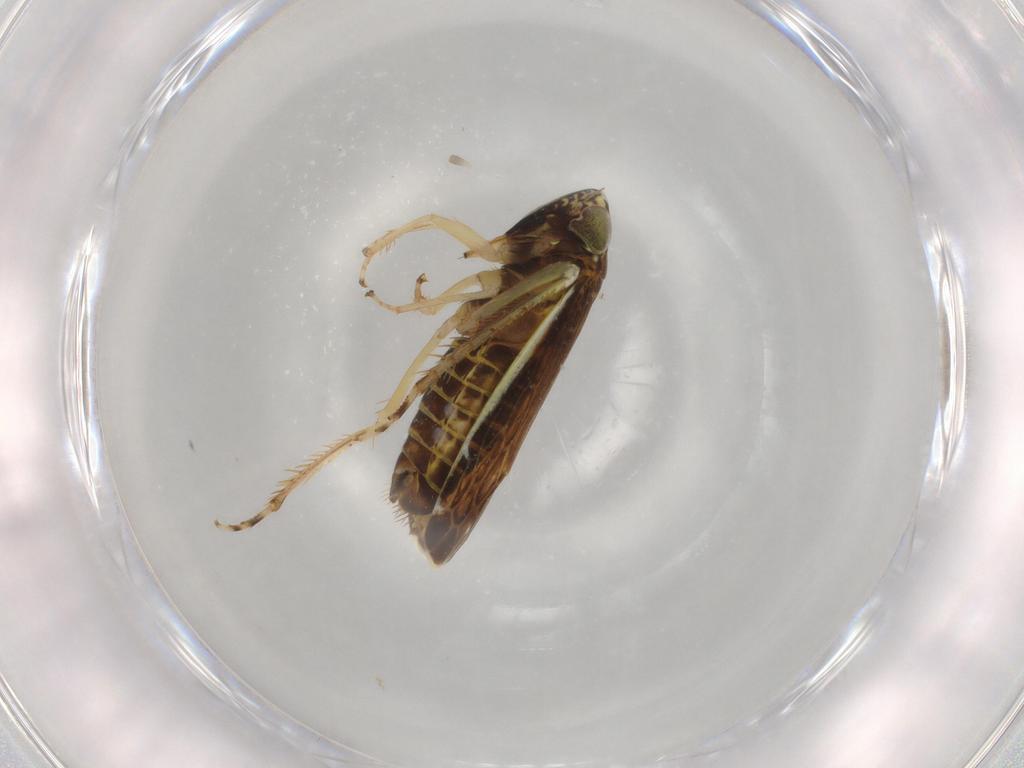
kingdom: Animalia
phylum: Arthropoda
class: Insecta
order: Hemiptera
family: Cicadellidae
